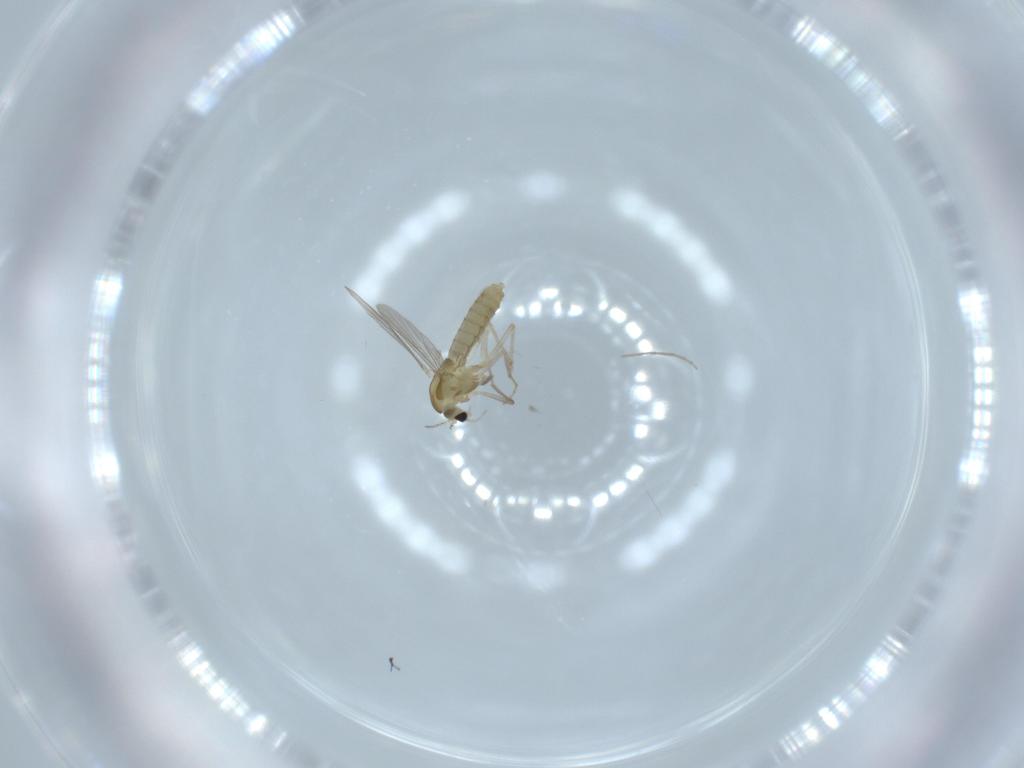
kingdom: Animalia
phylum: Arthropoda
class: Insecta
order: Diptera
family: Chironomidae
